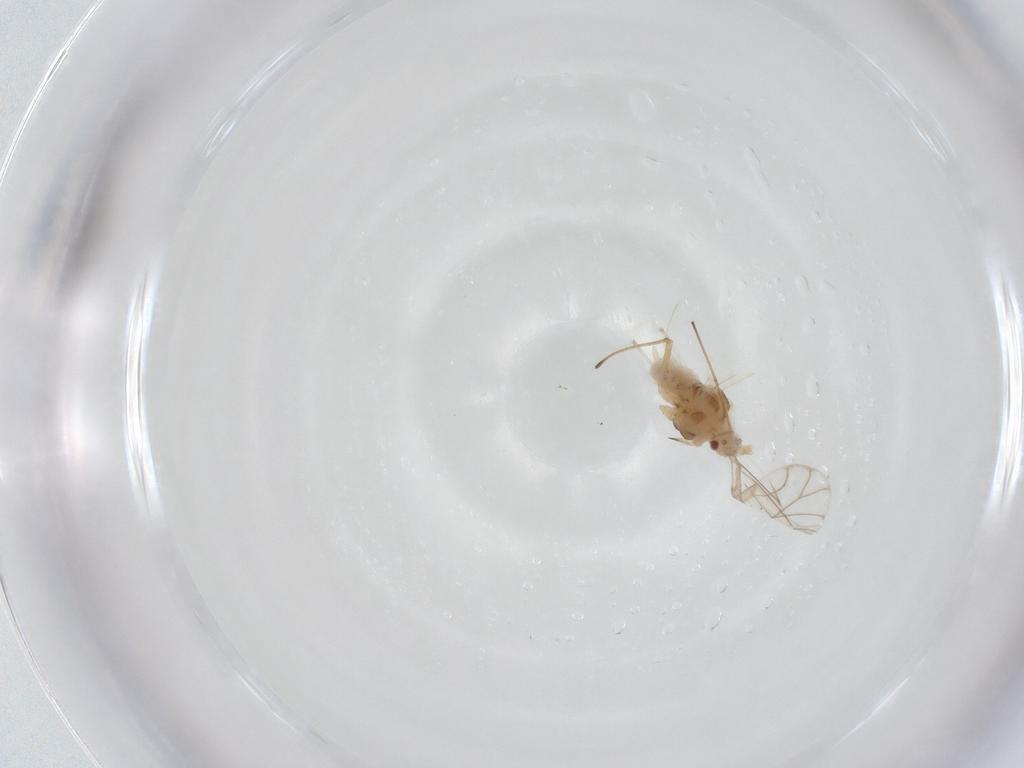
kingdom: Animalia
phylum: Arthropoda
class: Insecta
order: Hemiptera
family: Aphididae
